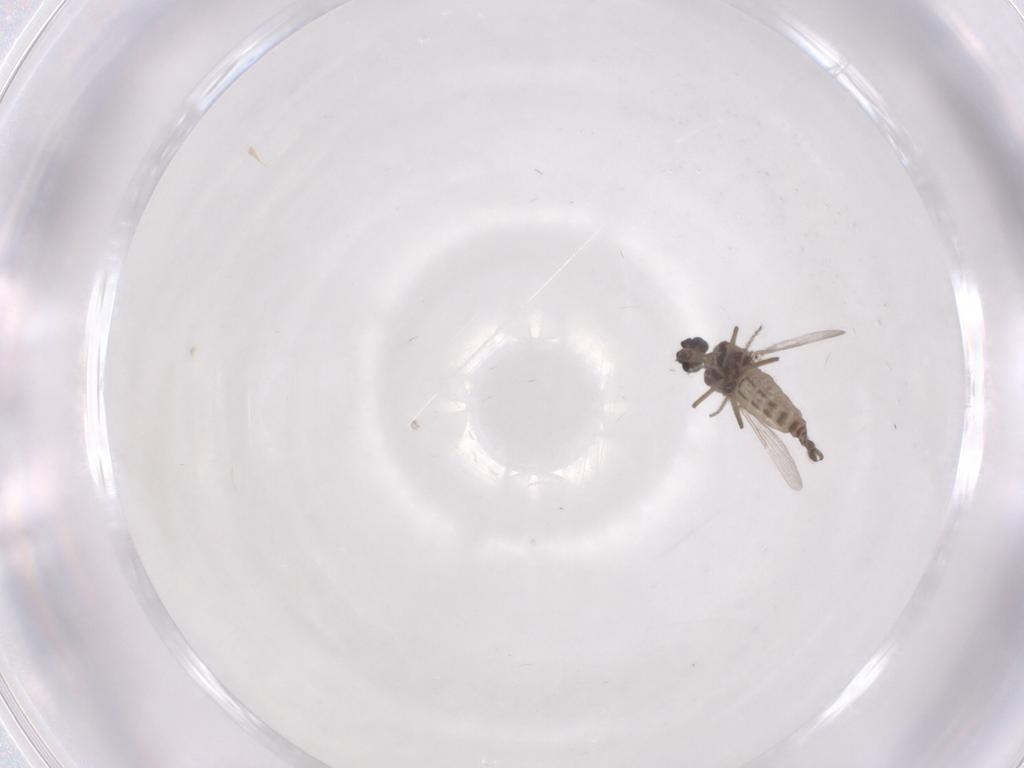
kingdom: Animalia
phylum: Arthropoda
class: Insecta
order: Diptera
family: Ceratopogonidae
